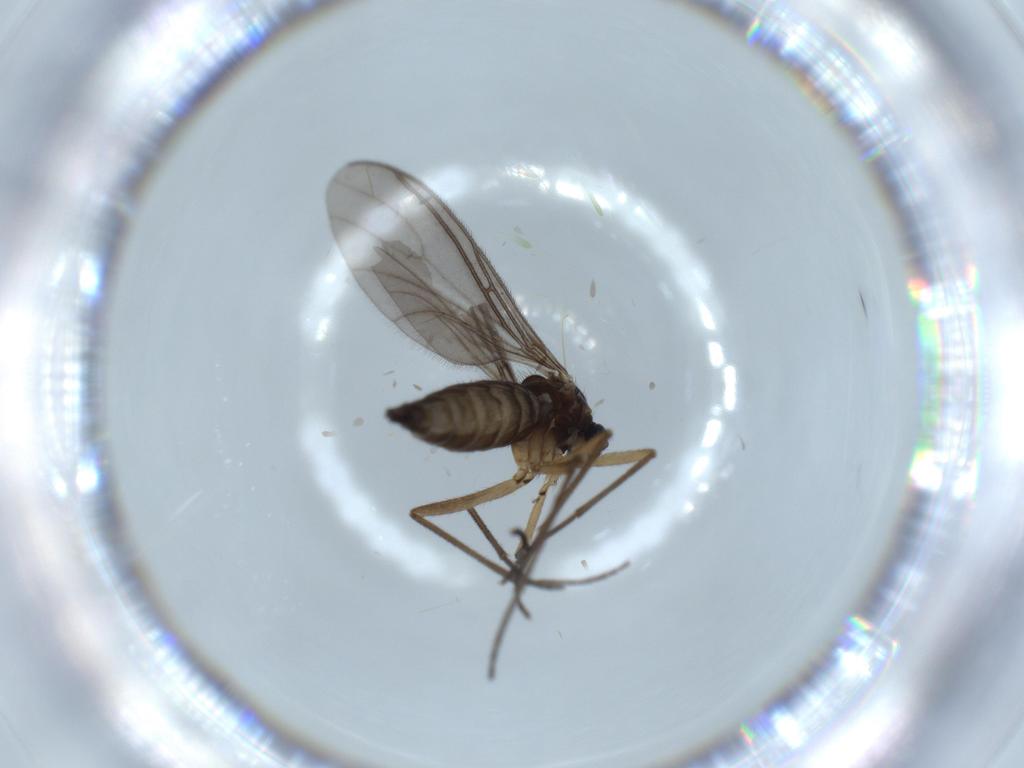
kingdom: Animalia
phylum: Arthropoda
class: Insecta
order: Diptera
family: Sciaridae
